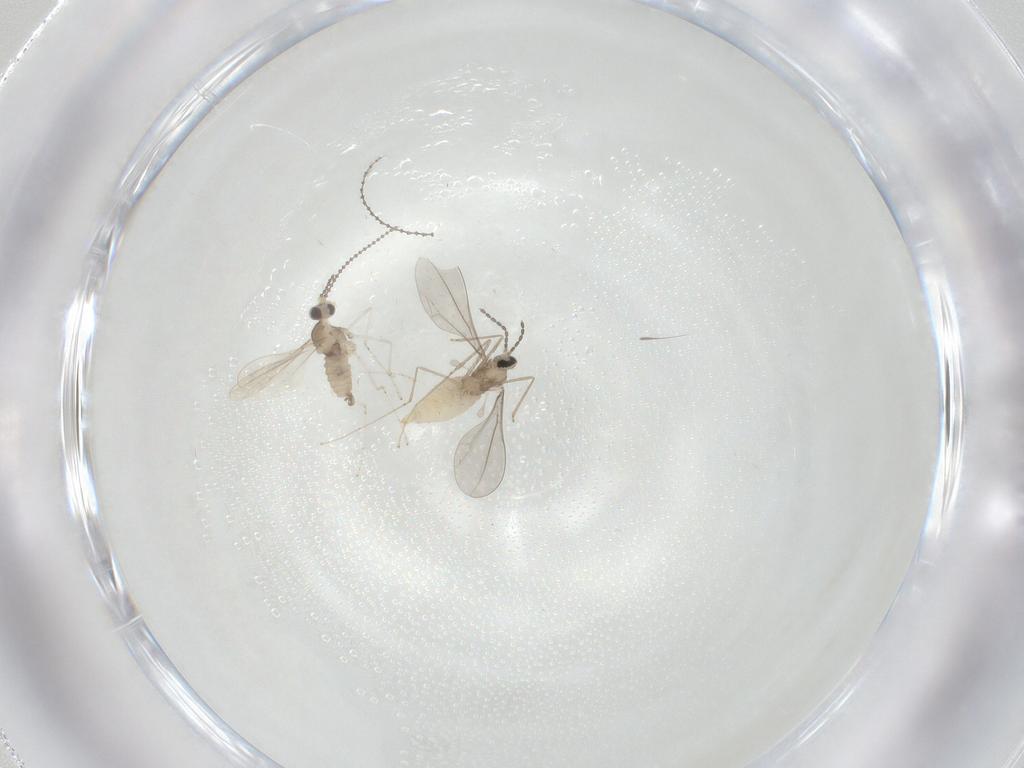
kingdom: Animalia
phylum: Arthropoda
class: Insecta
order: Diptera
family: Cecidomyiidae
